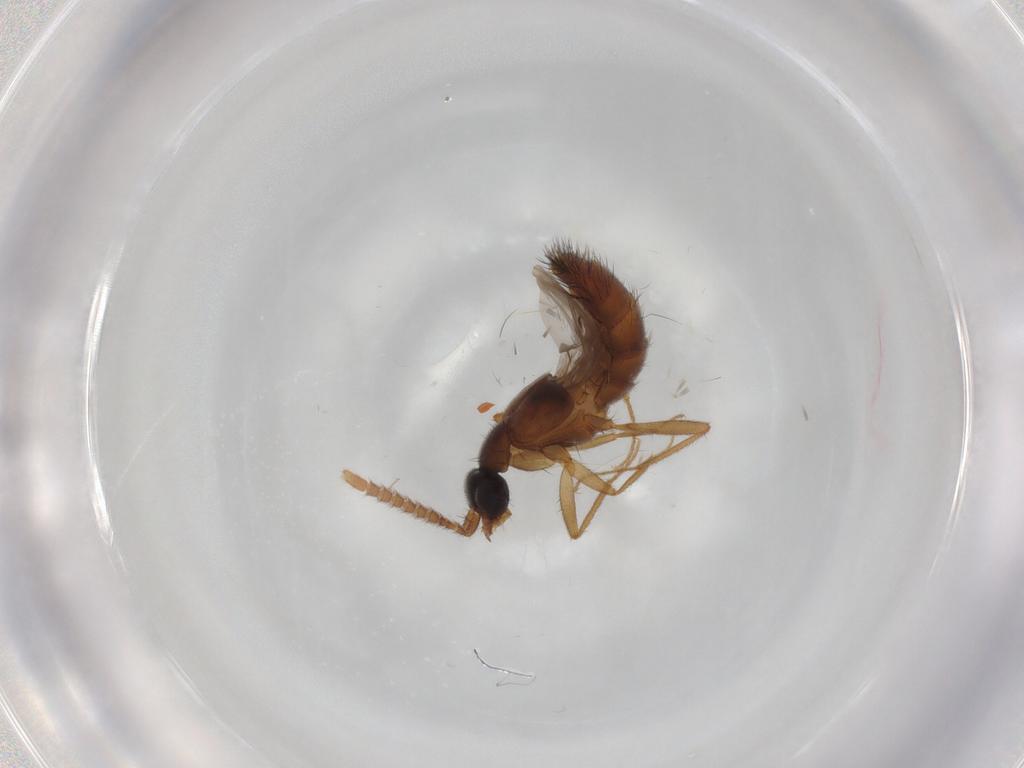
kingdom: Animalia
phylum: Arthropoda
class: Insecta
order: Coleoptera
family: Staphylinidae
